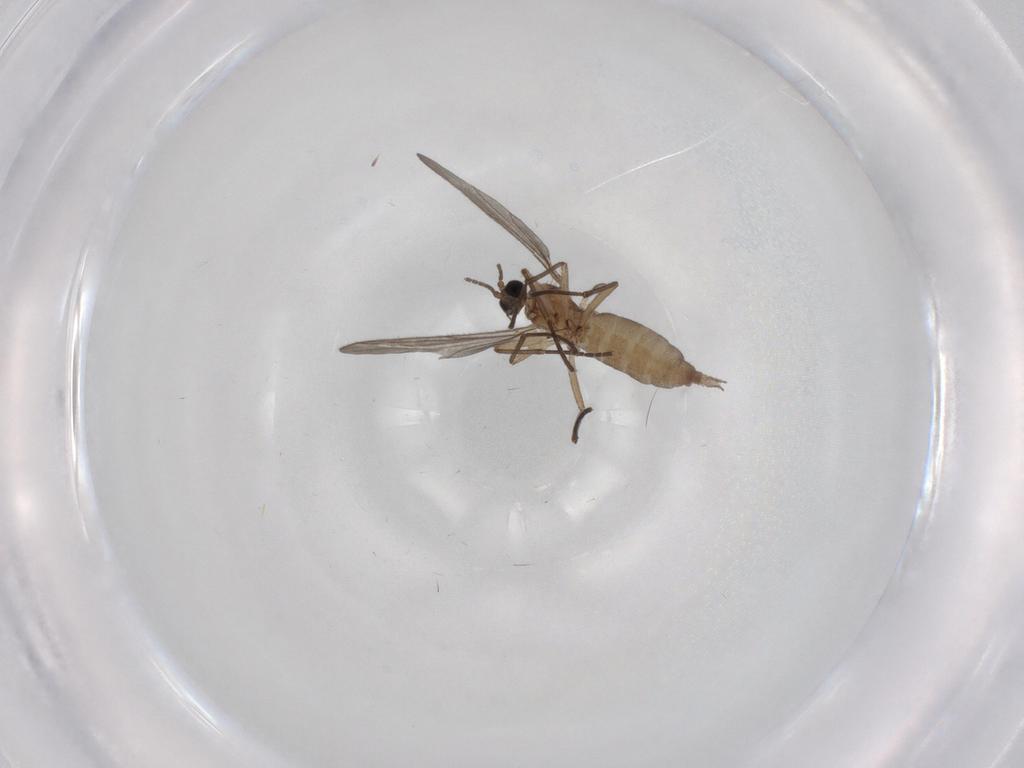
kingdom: Animalia
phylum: Arthropoda
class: Insecta
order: Diptera
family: Sciaridae
